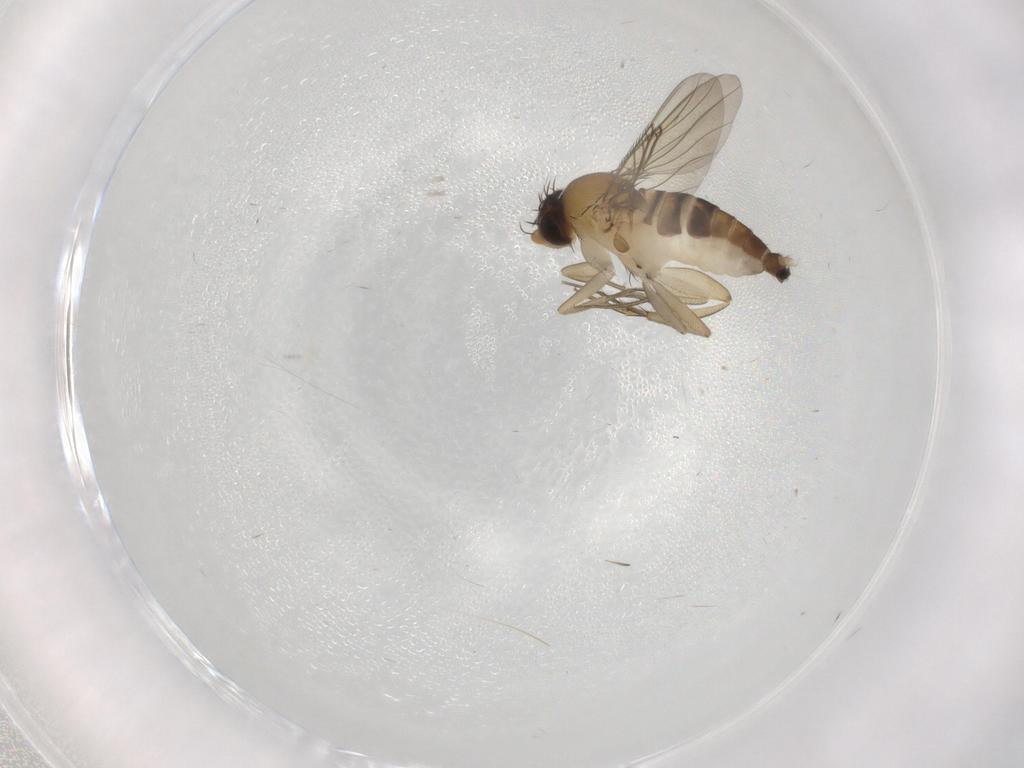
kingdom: Animalia
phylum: Arthropoda
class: Insecta
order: Diptera
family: Phoridae
